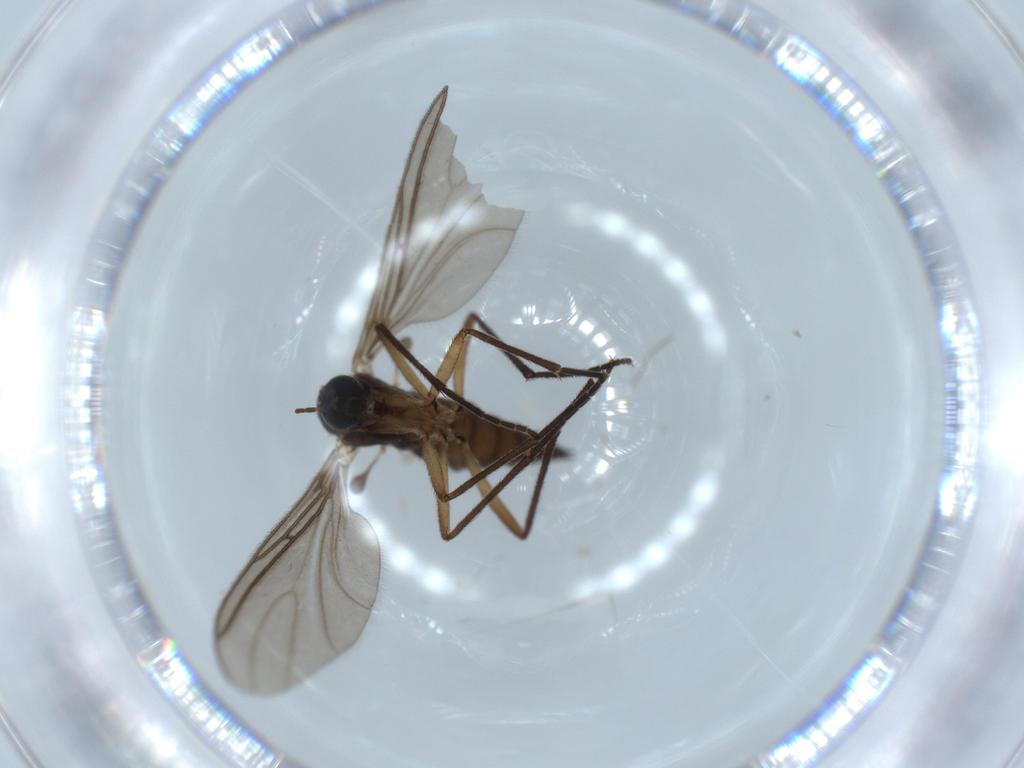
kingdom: Animalia
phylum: Arthropoda
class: Insecta
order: Diptera
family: Sciaridae
